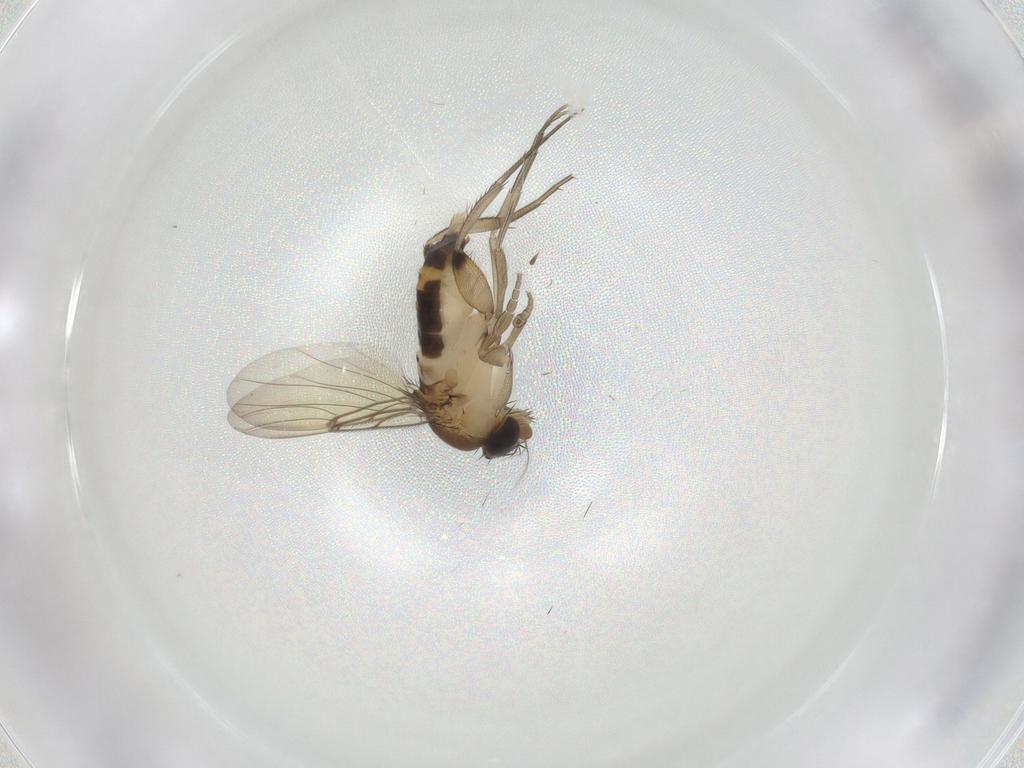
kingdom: Animalia
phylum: Arthropoda
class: Insecta
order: Diptera
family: Phoridae
